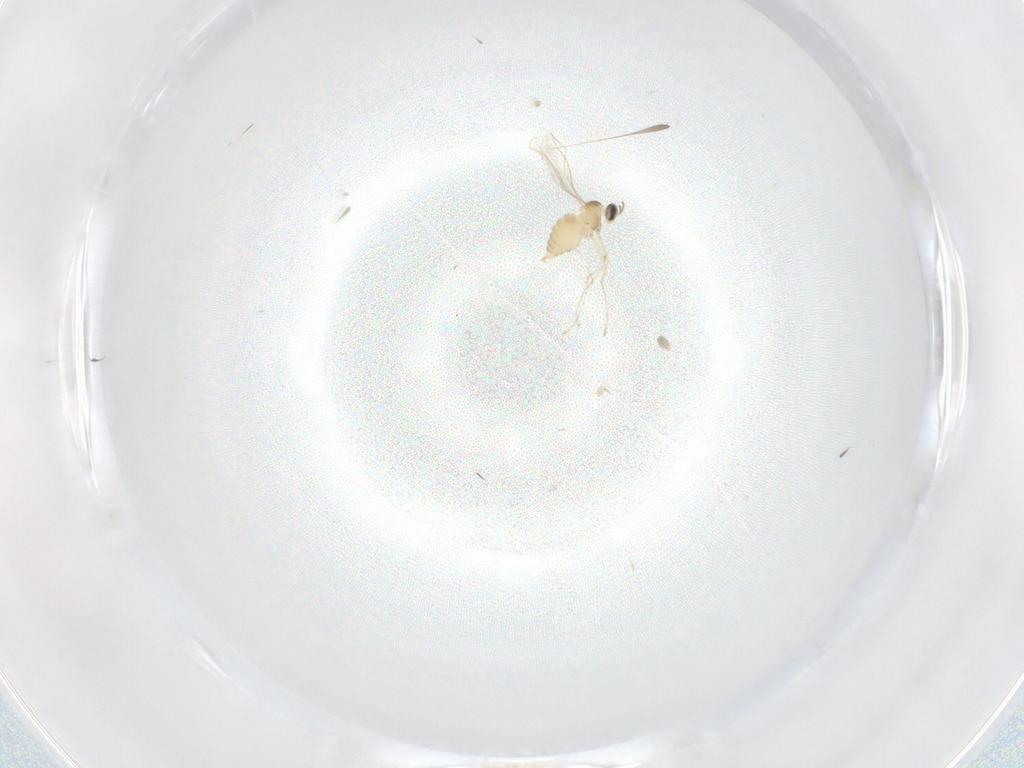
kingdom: Animalia
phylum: Arthropoda
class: Insecta
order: Diptera
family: Cecidomyiidae
